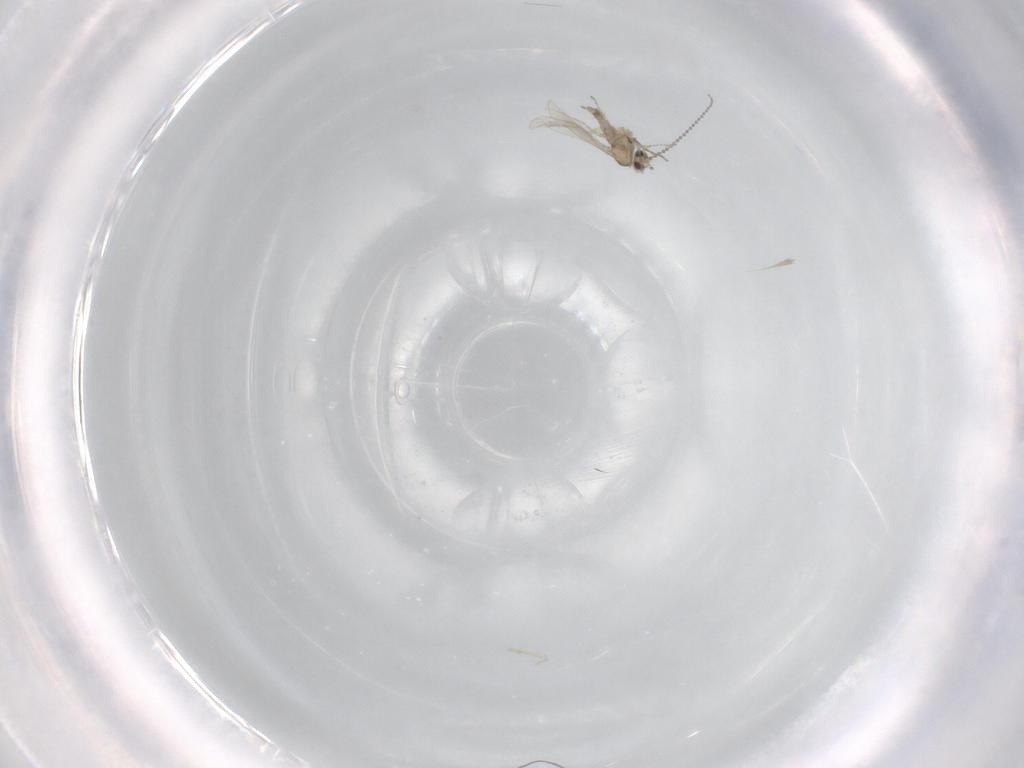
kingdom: Animalia
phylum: Arthropoda
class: Insecta
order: Diptera
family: Cecidomyiidae
